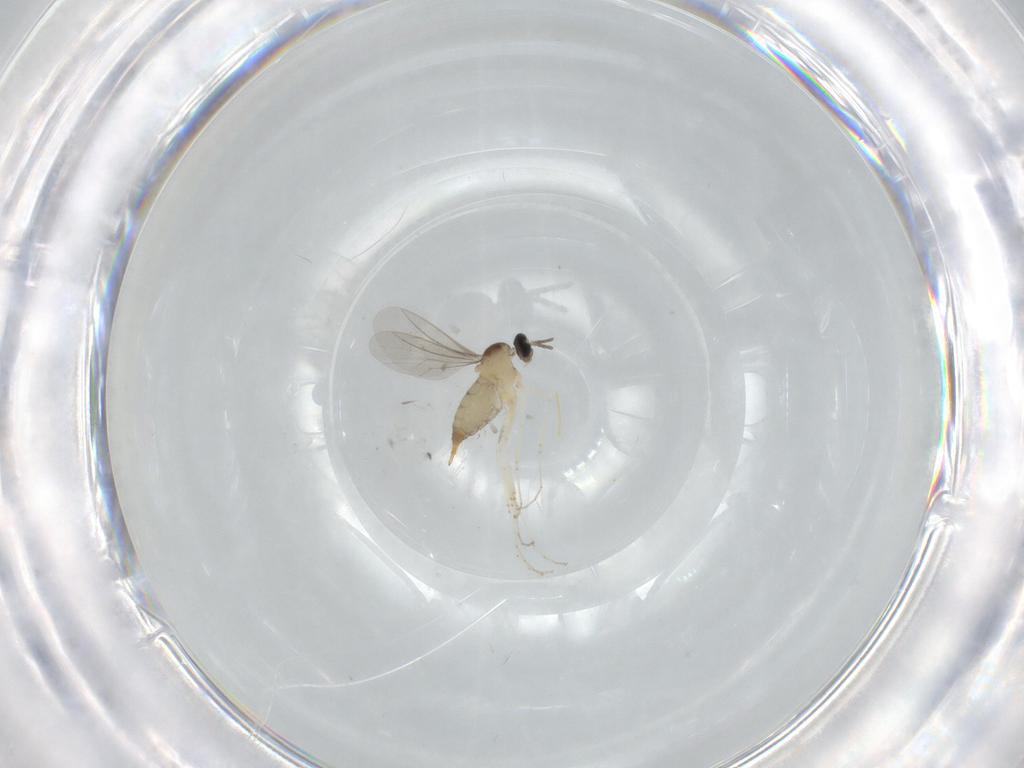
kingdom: Animalia
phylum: Arthropoda
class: Insecta
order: Diptera
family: Cecidomyiidae
